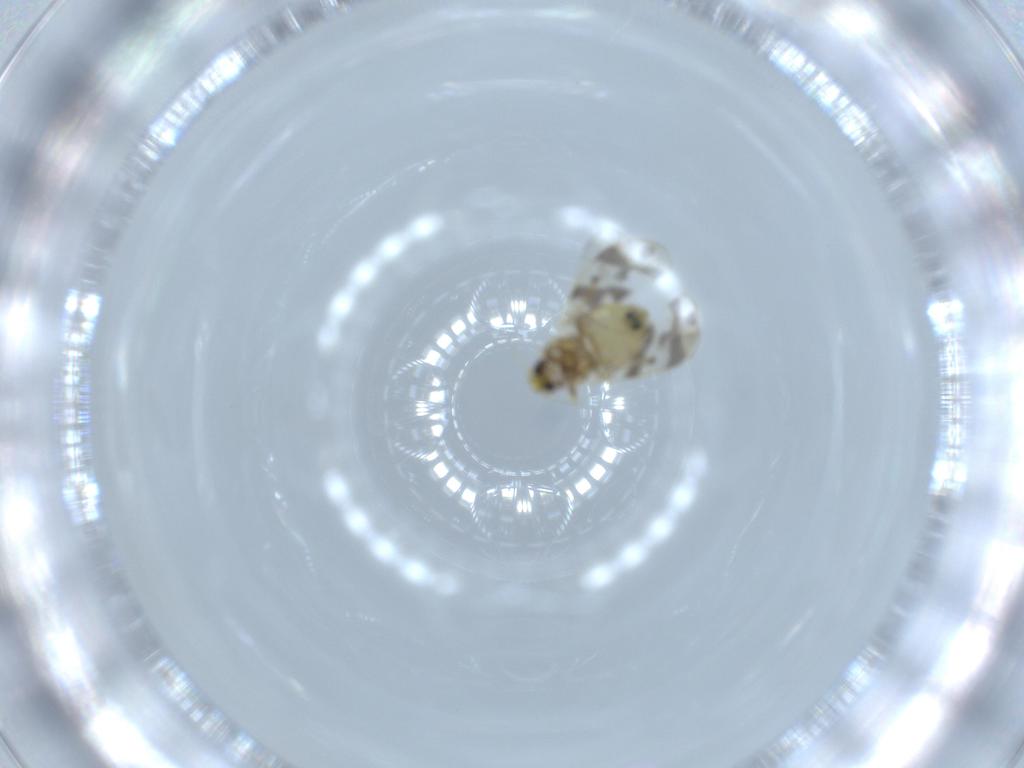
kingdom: Animalia
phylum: Arthropoda
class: Insecta
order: Hemiptera
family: Aleyrodidae
